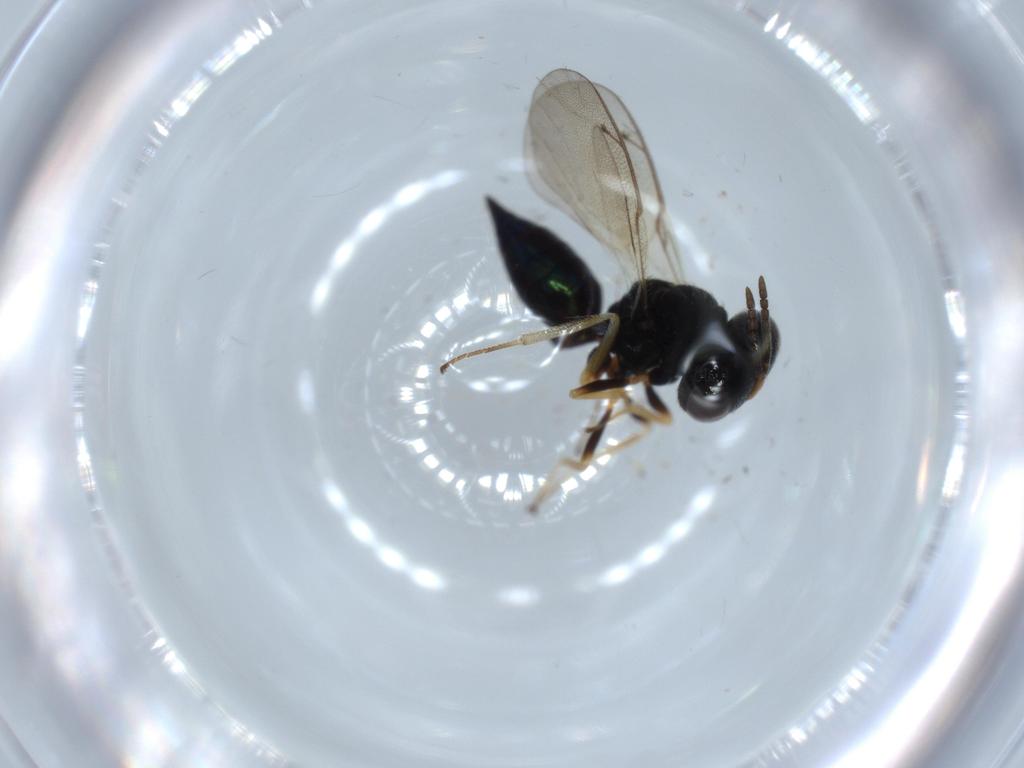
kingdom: Animalia
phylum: Arthropoda
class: Insecta
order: Hymenoptera
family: Pteromalidae
